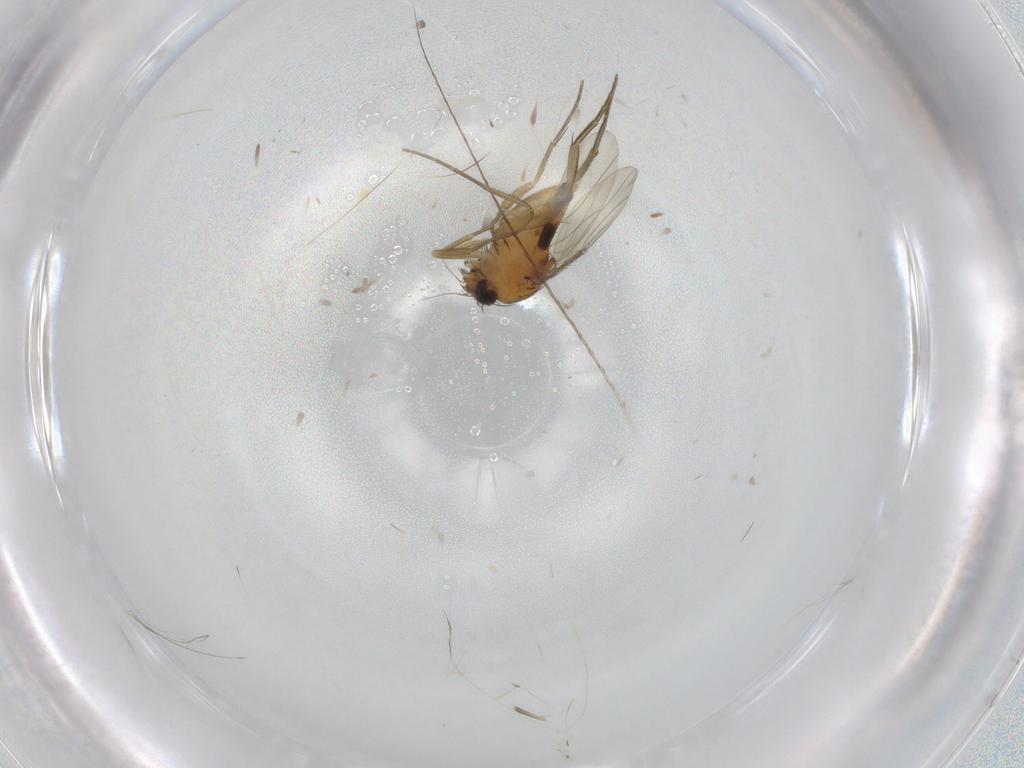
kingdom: Animalia
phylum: Arthropoda
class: Insecta
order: Diptera
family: Phoridae
